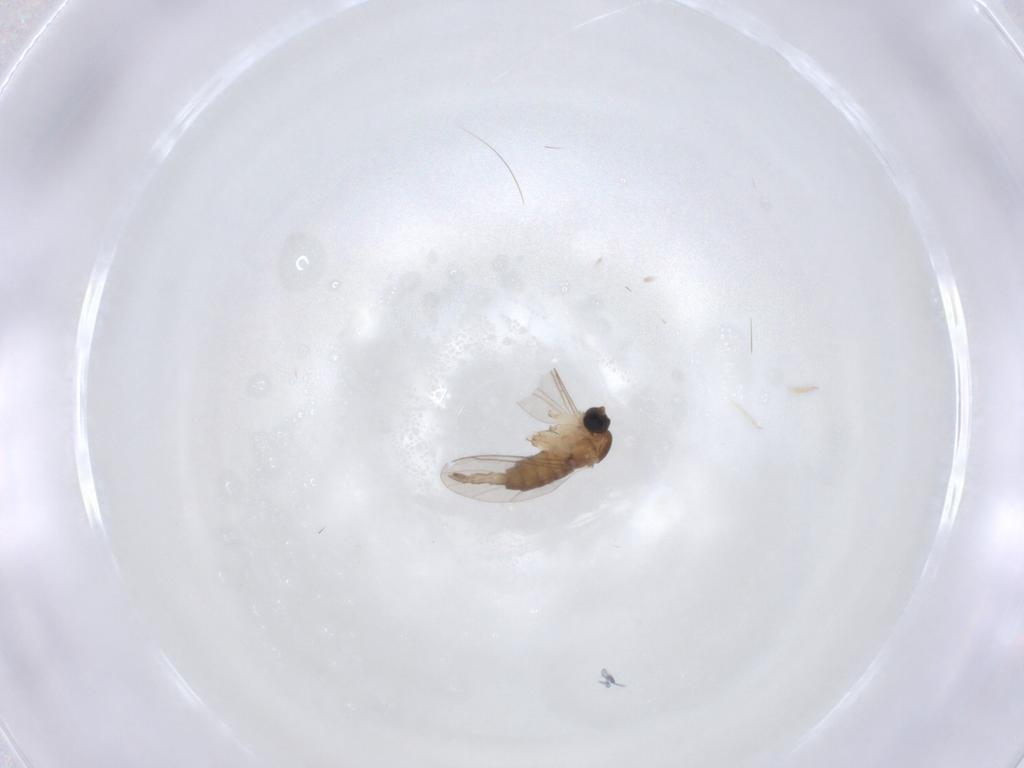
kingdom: Animalia
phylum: Arthropoda
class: Insecta
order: Diptera
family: Sciaridae
